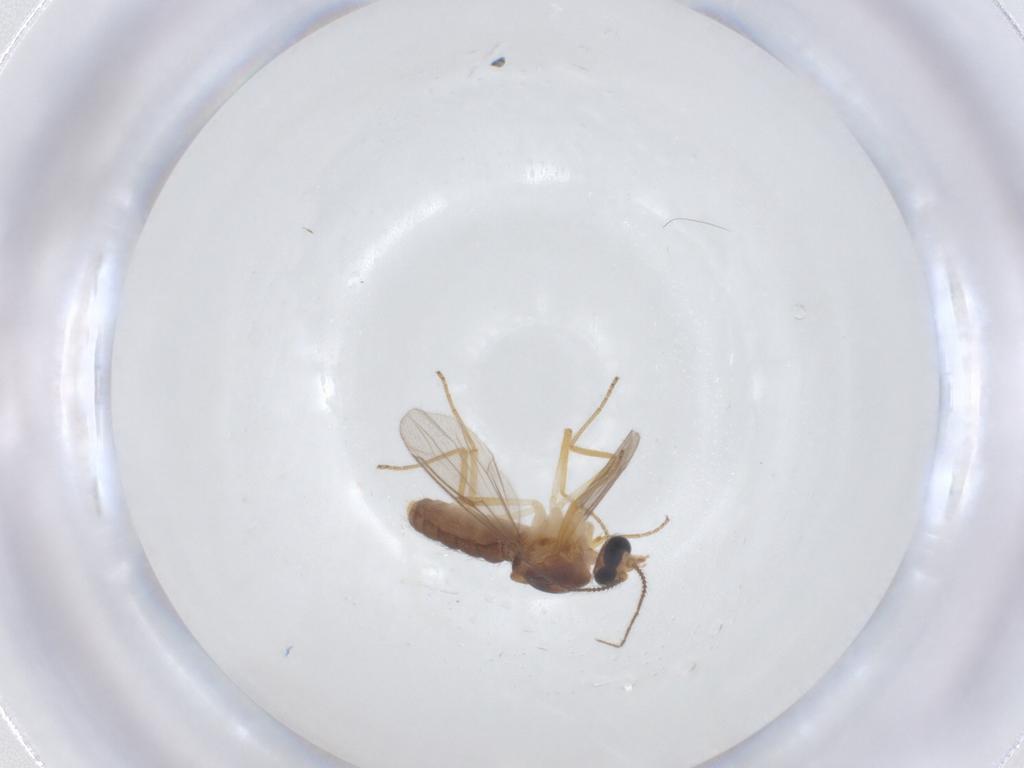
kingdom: Animalia
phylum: Arthropoda
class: Insecta
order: Diptera
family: Ceratopogonidae
